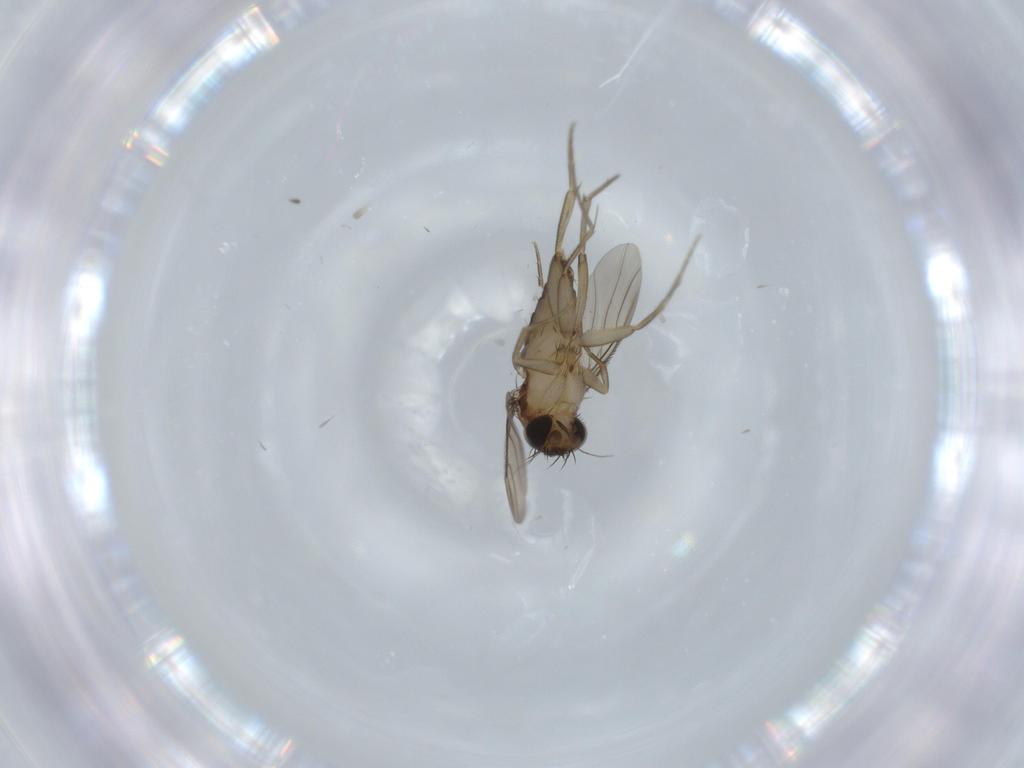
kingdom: Animalia
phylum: Arthropoda
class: Insecta
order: Diptera
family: Phoridae
